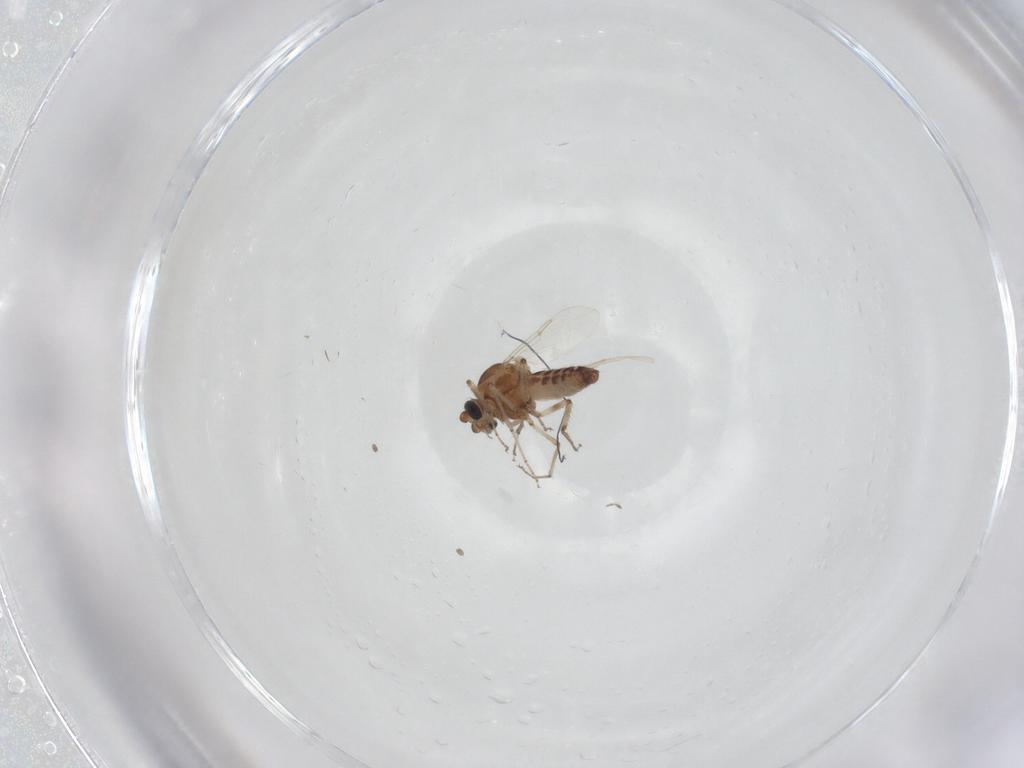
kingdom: Animalia
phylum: Arthropoda
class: Insecta
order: Diptera
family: Ceratopogonidae
